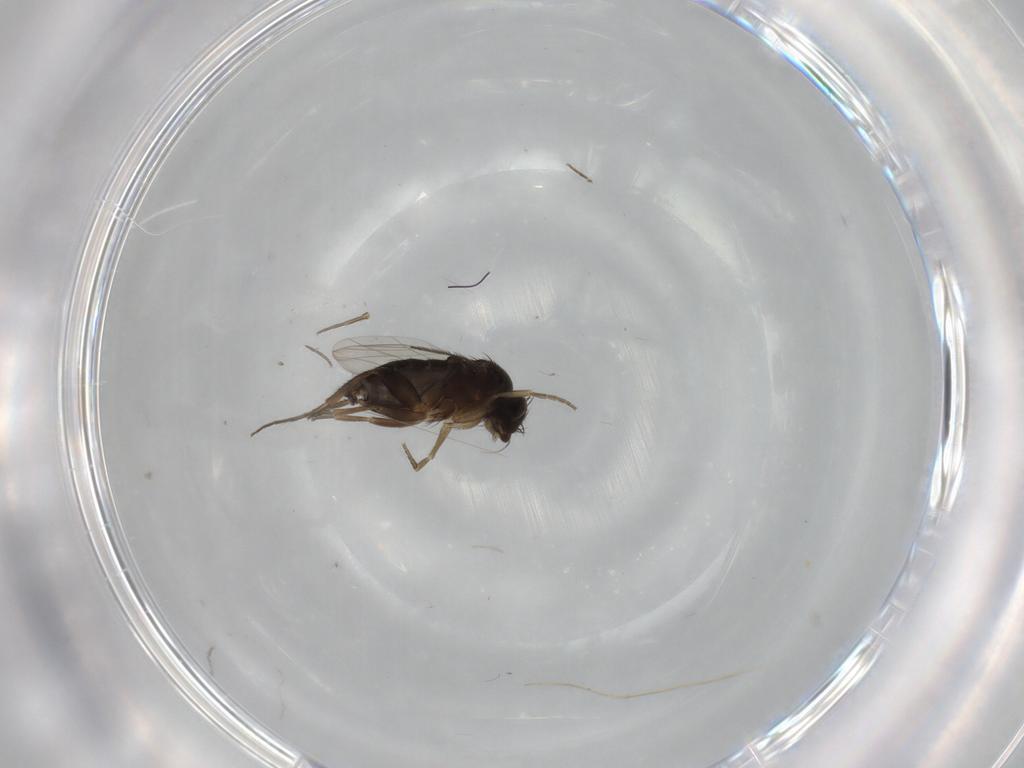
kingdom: Animalia
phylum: Arthropoda
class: Insecta
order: Diptera
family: Phoridae
